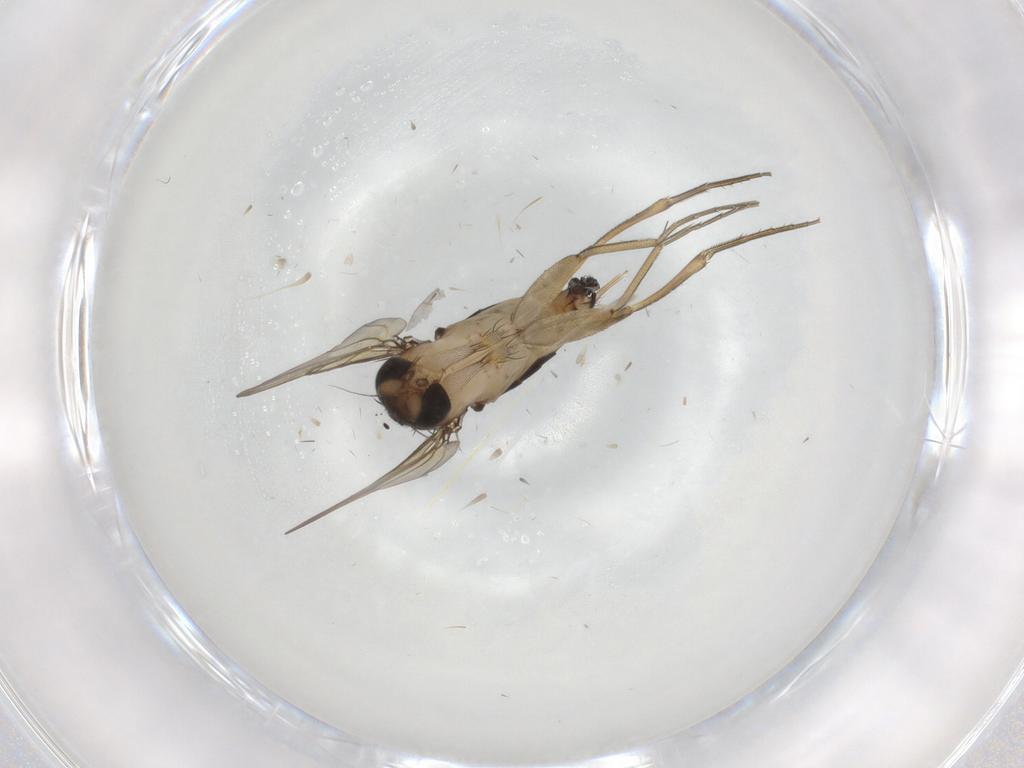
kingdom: Animalia
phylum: Arthropoda
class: Insecta
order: Diptera
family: Phoridae
